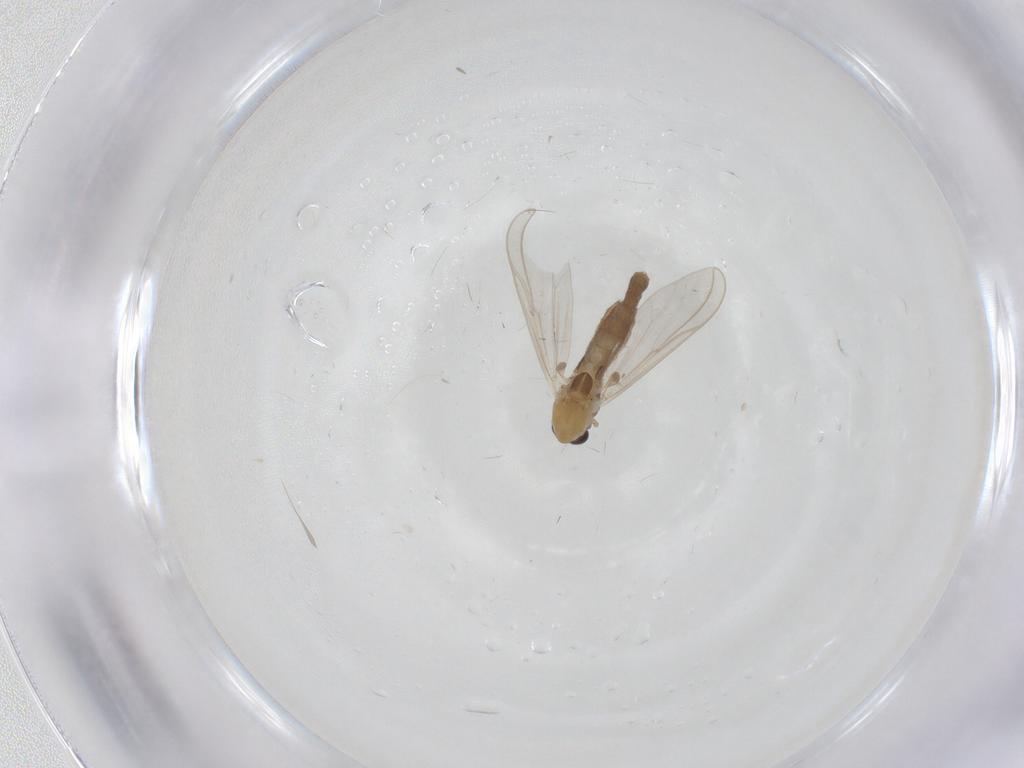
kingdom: Animalia
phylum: Arthropoda
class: Insecta
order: Diptera
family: Chironomidae
